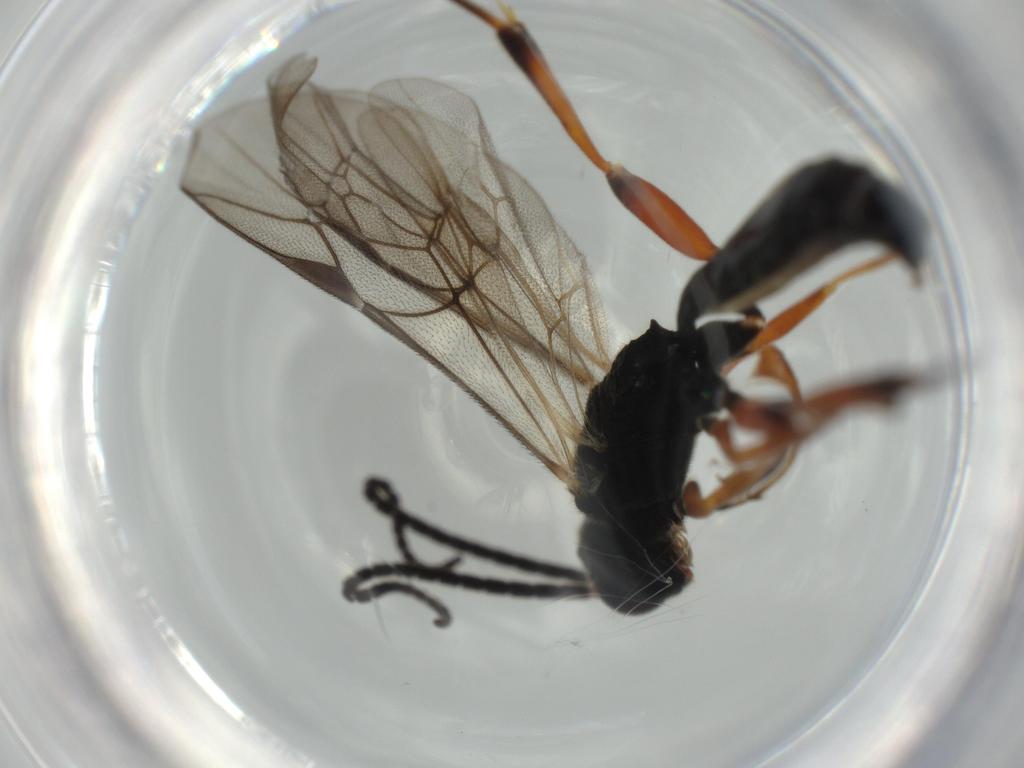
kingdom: Animalia
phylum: Arthropoda
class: Insecta
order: Hymenoptera
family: Ichneumonidae
